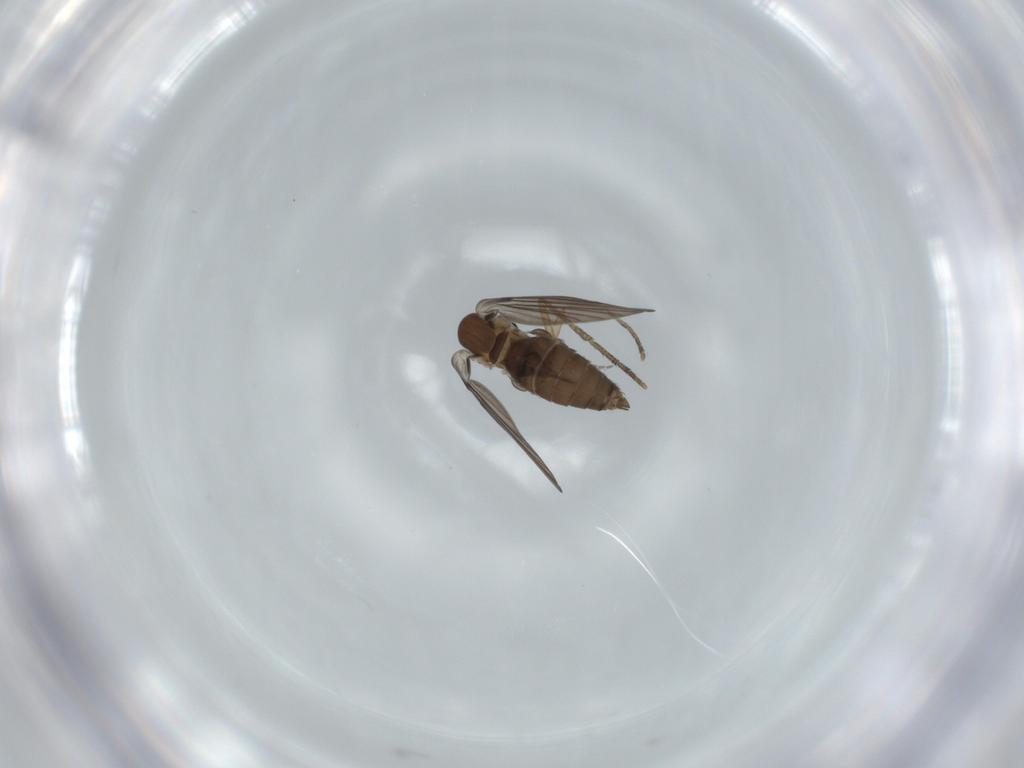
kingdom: Animalia
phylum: Arthropoda
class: Insecta
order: Diptera
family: Psychodidae
